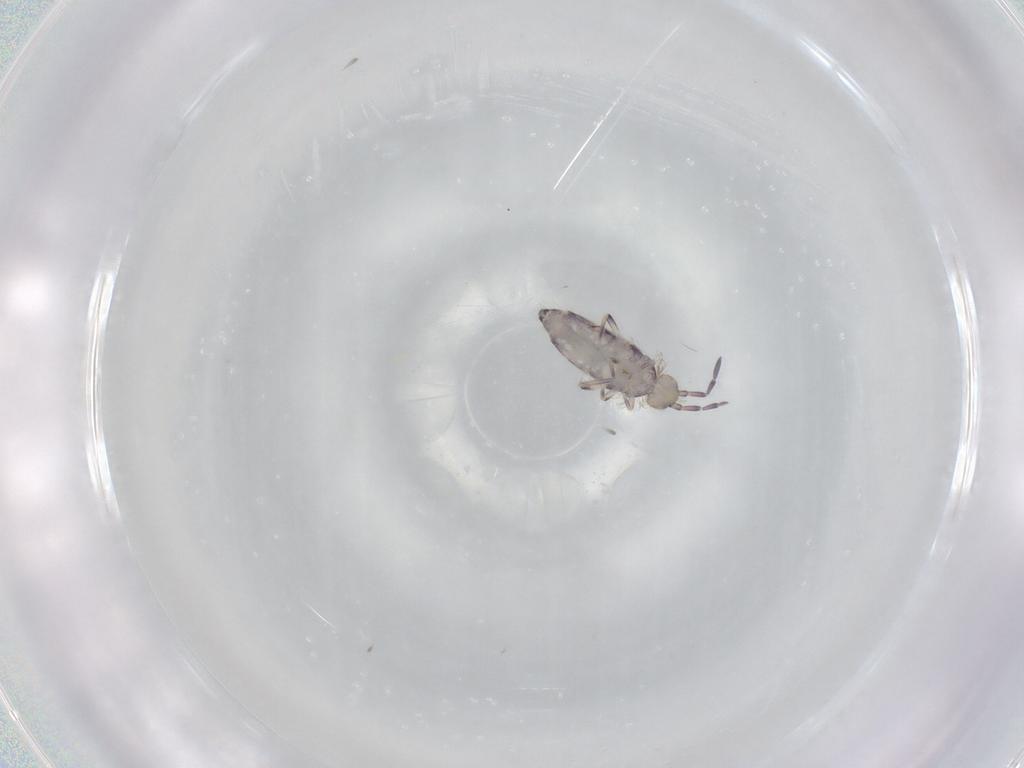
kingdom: Animalia
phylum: Arthropoda
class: Collembola
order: Entomobryomorpha
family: Entomobryidae
